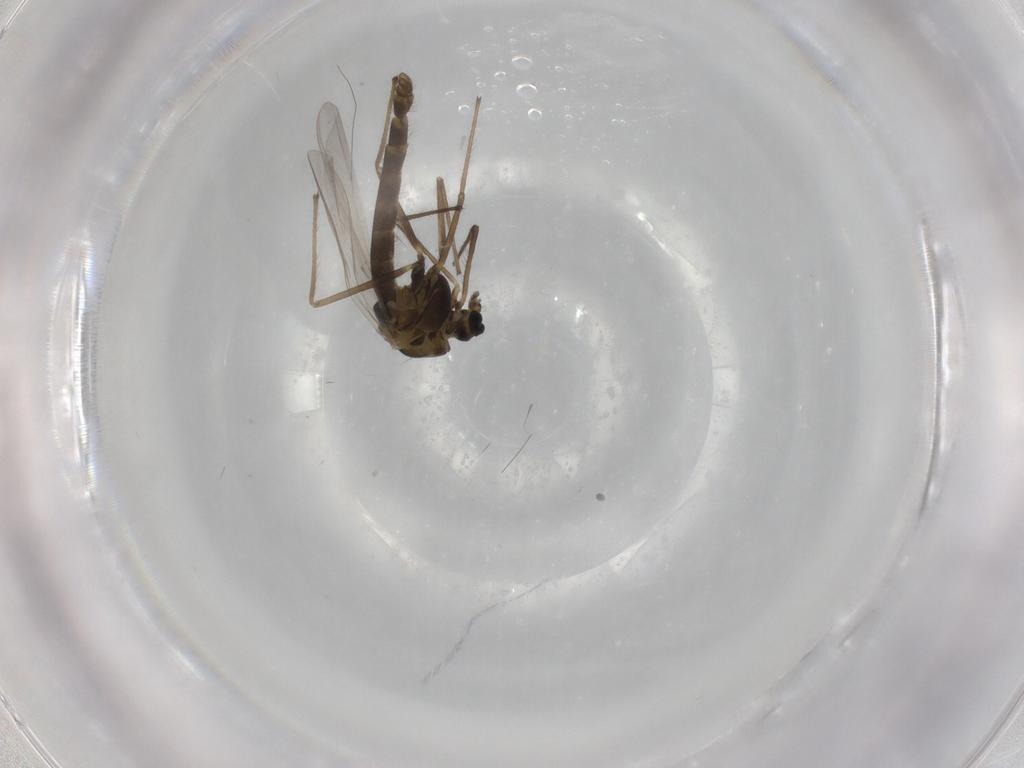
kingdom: Animalia
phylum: Arthropoda
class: Insecta
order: Diptera
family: Chironomidae
